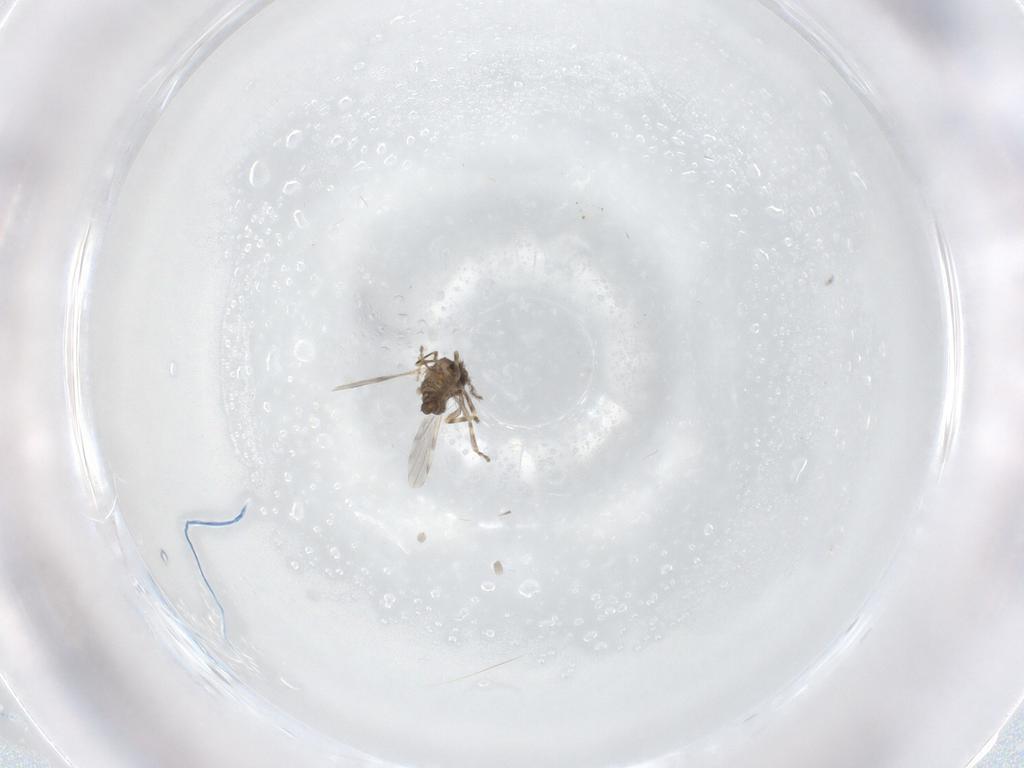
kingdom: Animalia
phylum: Arthropoda
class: Insecta
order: Diptera
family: Ceratopogonidae
